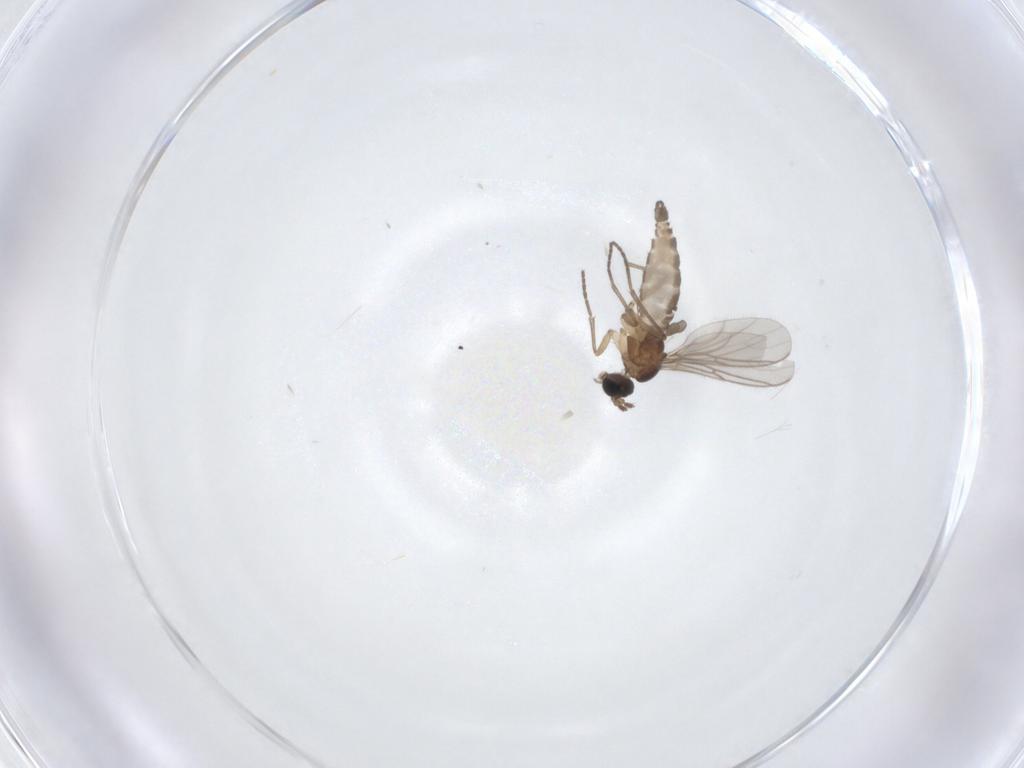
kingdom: Animalia
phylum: Arthropoda
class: Insecta
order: Diptera
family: Sciaridae
